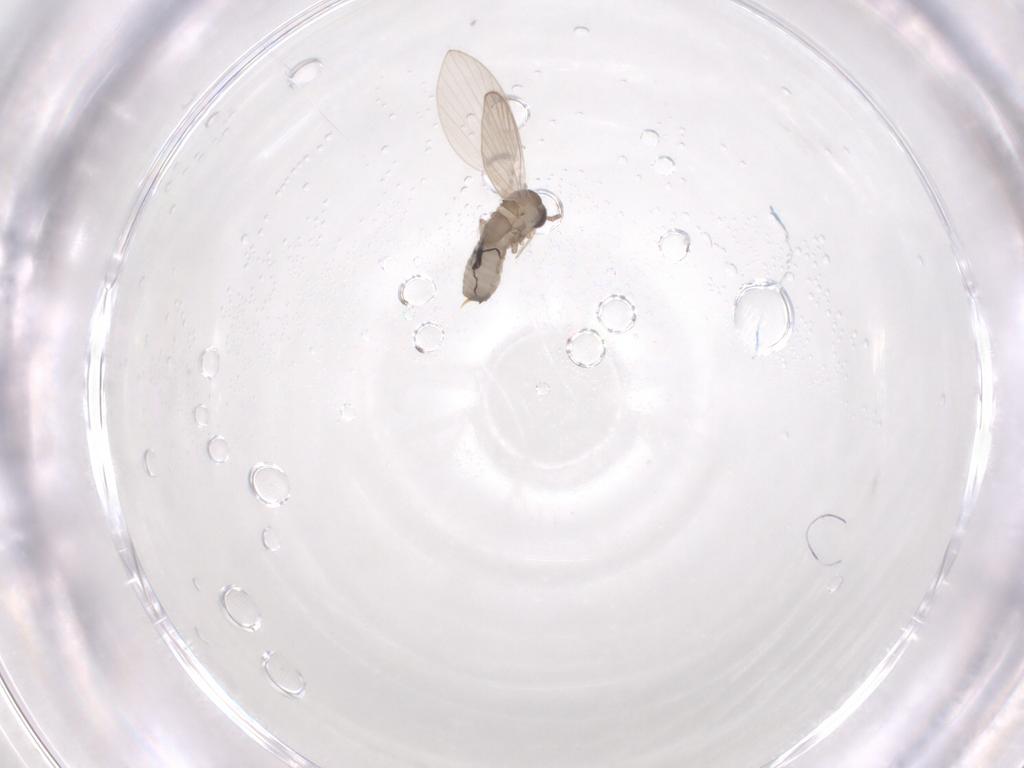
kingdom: Animalia
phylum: Arthropoda
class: Insecta
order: Diptera
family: Psychodidae
